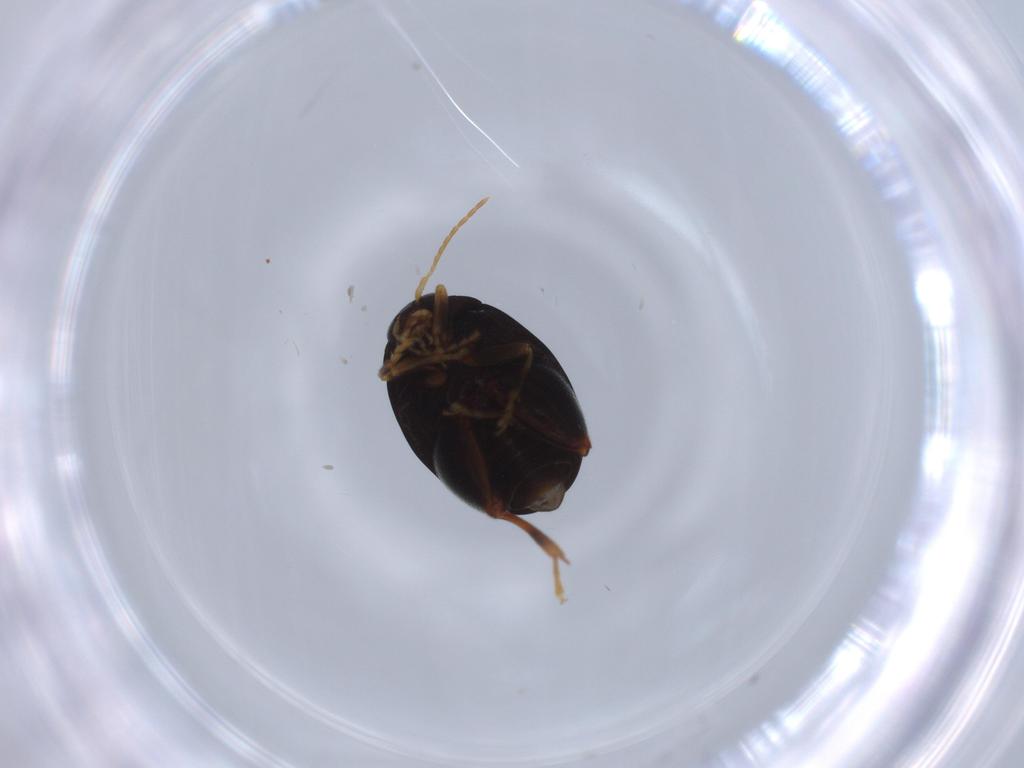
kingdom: Animalia
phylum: Arthropoda
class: Insecta
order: Coleoptera
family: Chrysomelidae
